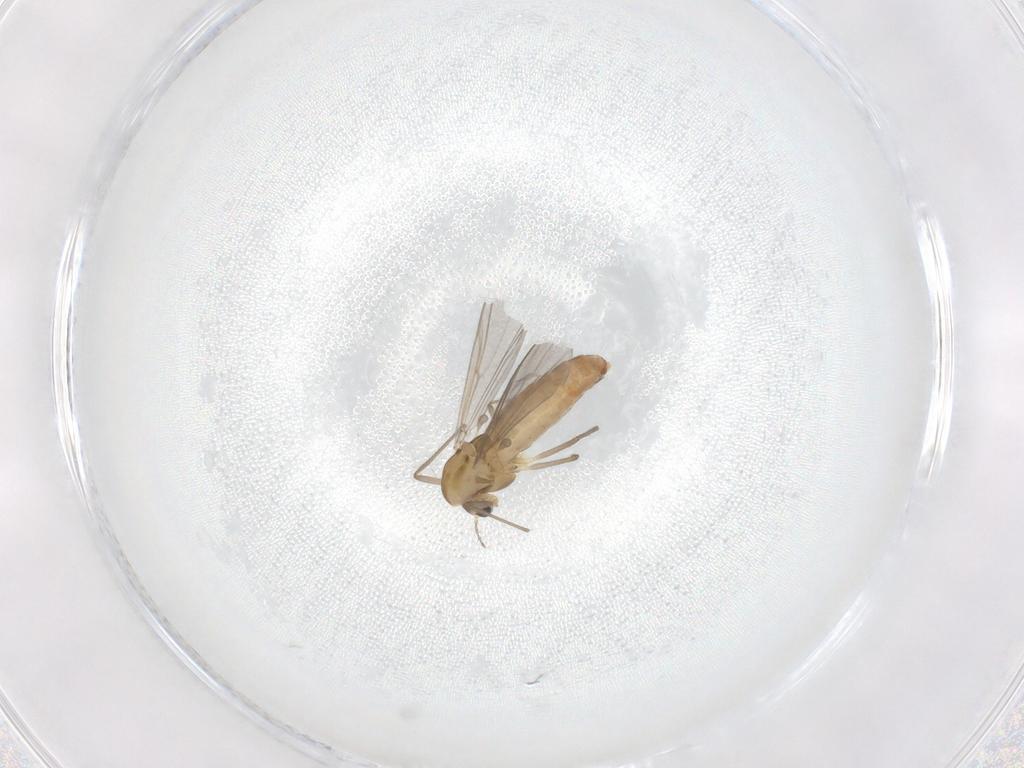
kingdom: Animalia
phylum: Arthropoda
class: Insecta
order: Diptera
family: Chironomidae
